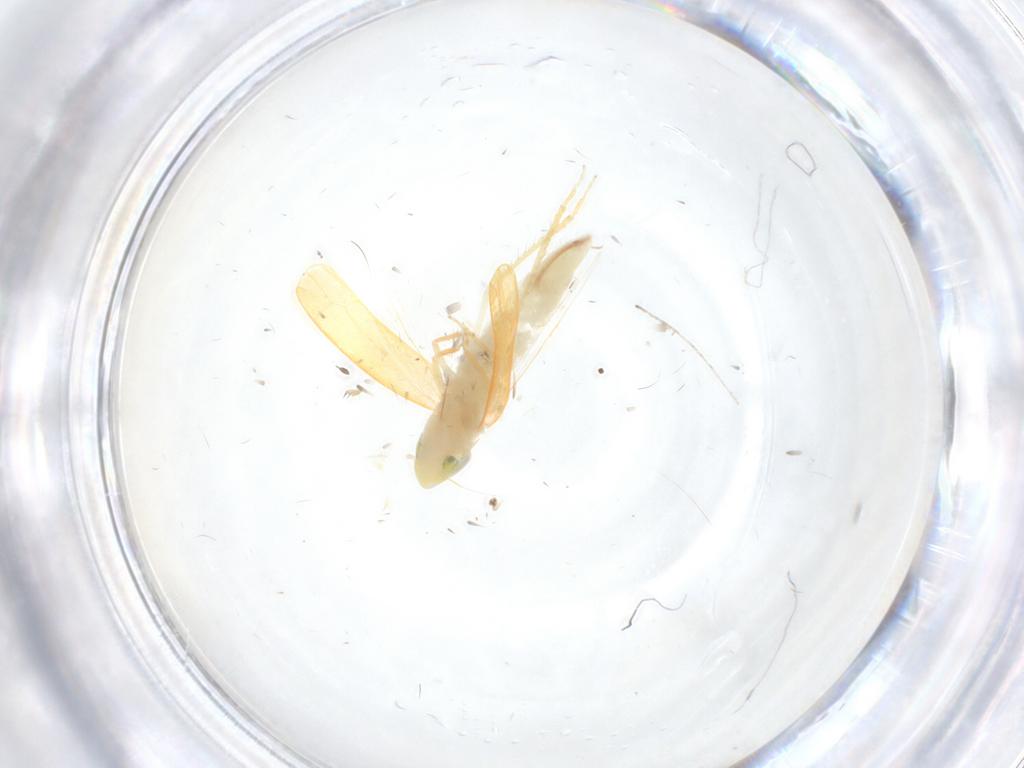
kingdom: Animalia
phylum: Arthropoda
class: Insecta
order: Hemiptera
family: Cicadellidae
